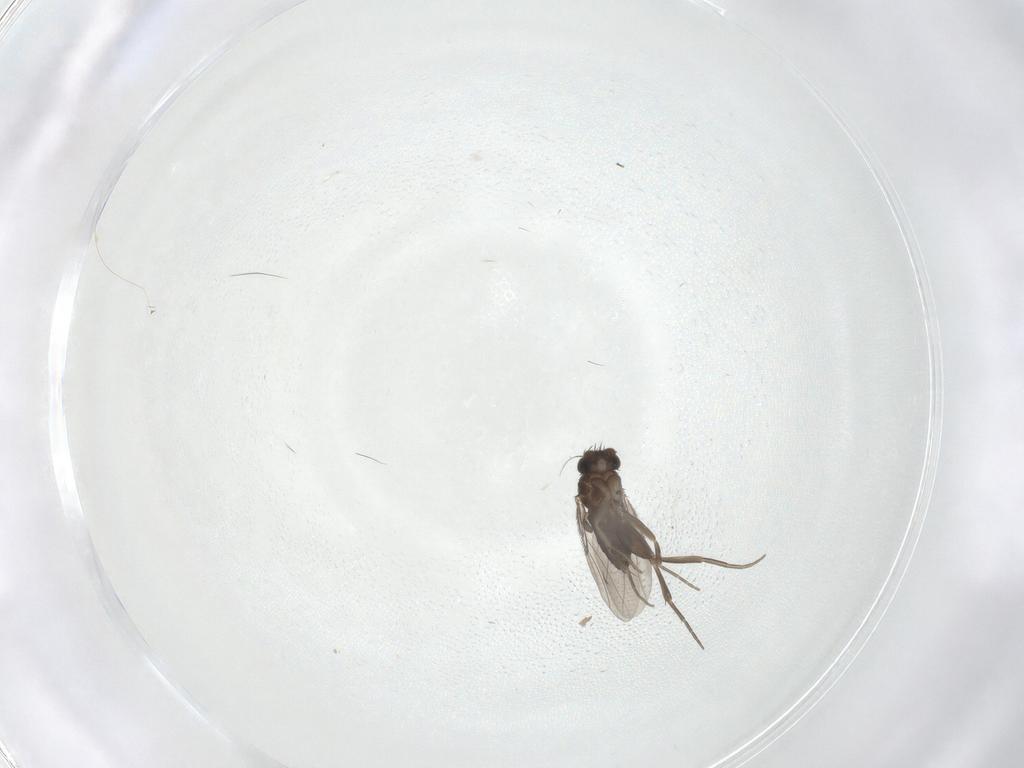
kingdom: Animalia
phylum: Arthropoda
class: Insecta
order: Diptera
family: Phoridae
